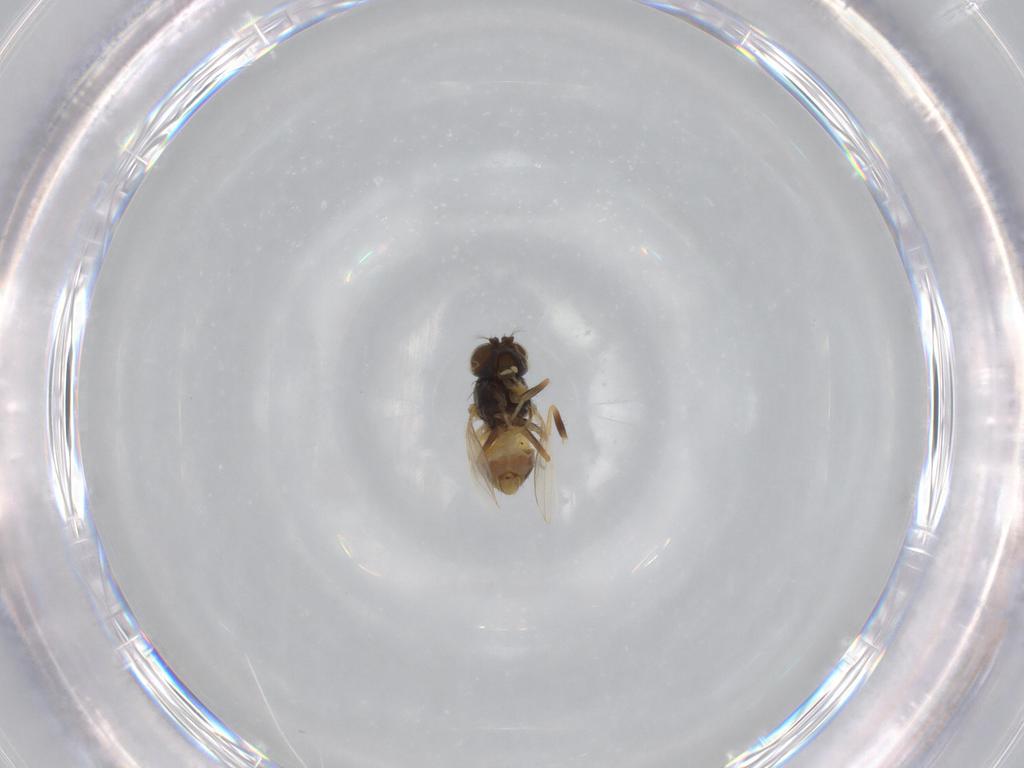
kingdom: Animalia
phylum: Arthropoda
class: Insecta
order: Diptera
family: Ephydridae
